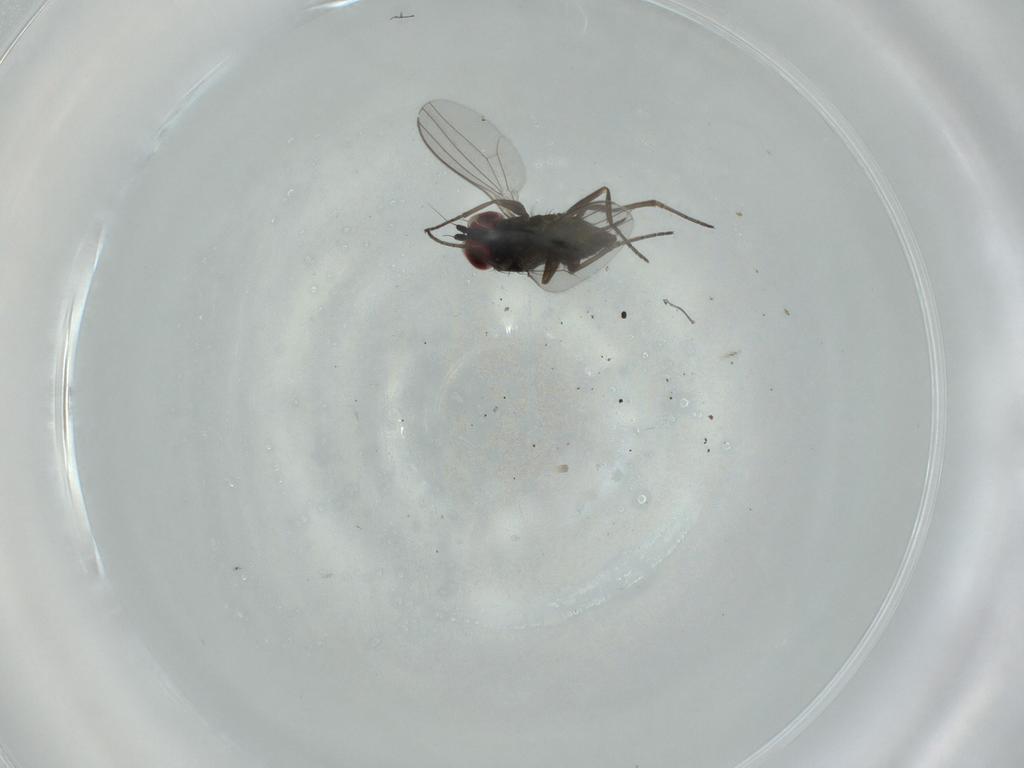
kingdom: Animalia
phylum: Arthropoda
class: Insecta
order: Diptera
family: Dolichopodidae
